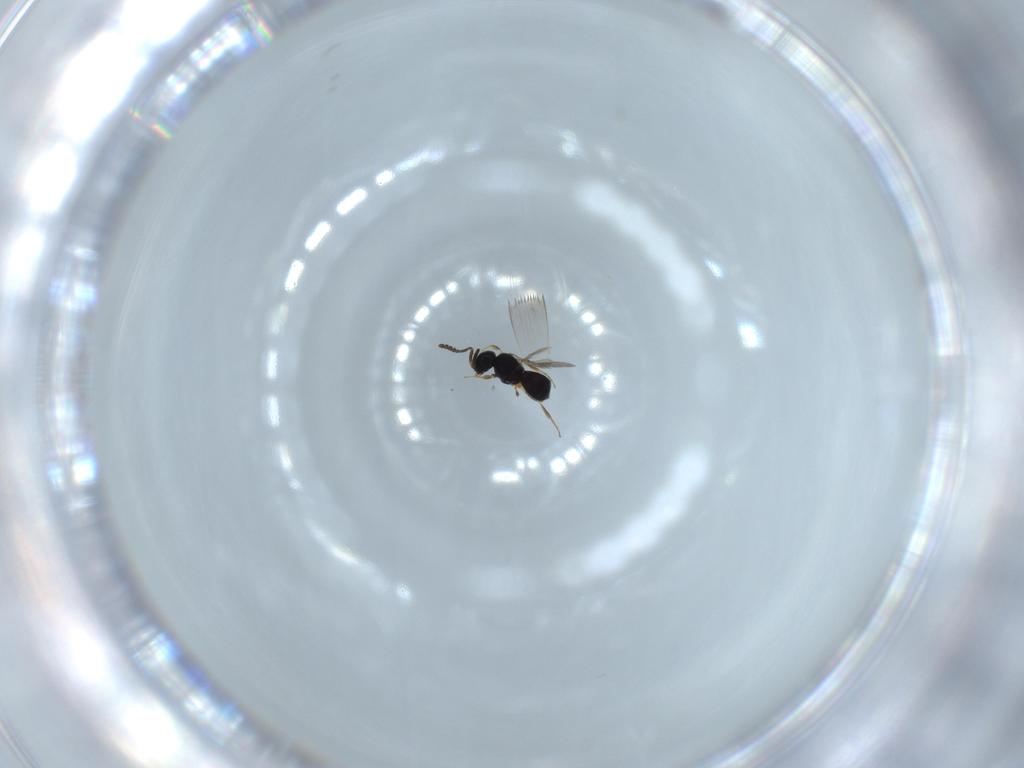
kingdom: Animalia
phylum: Arthropoda
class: Insecta
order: Hymenoptera
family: Scelionidae
